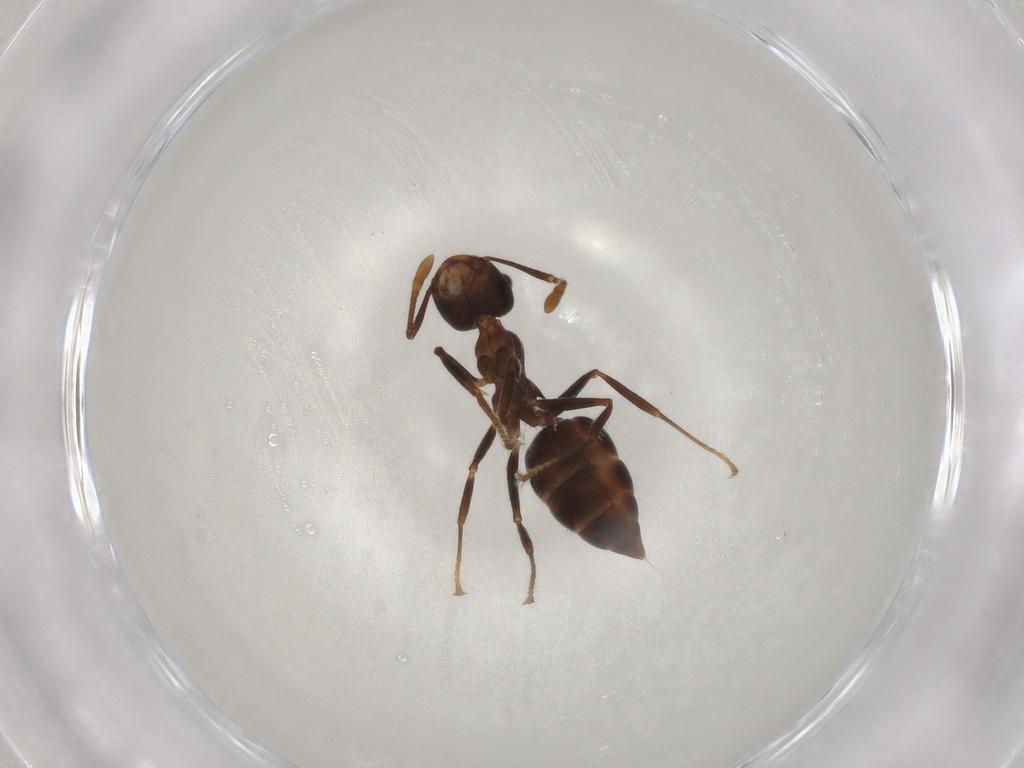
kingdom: Animalia
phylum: Arthropoda
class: Insecta
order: Hymenoptera
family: Formicidae
